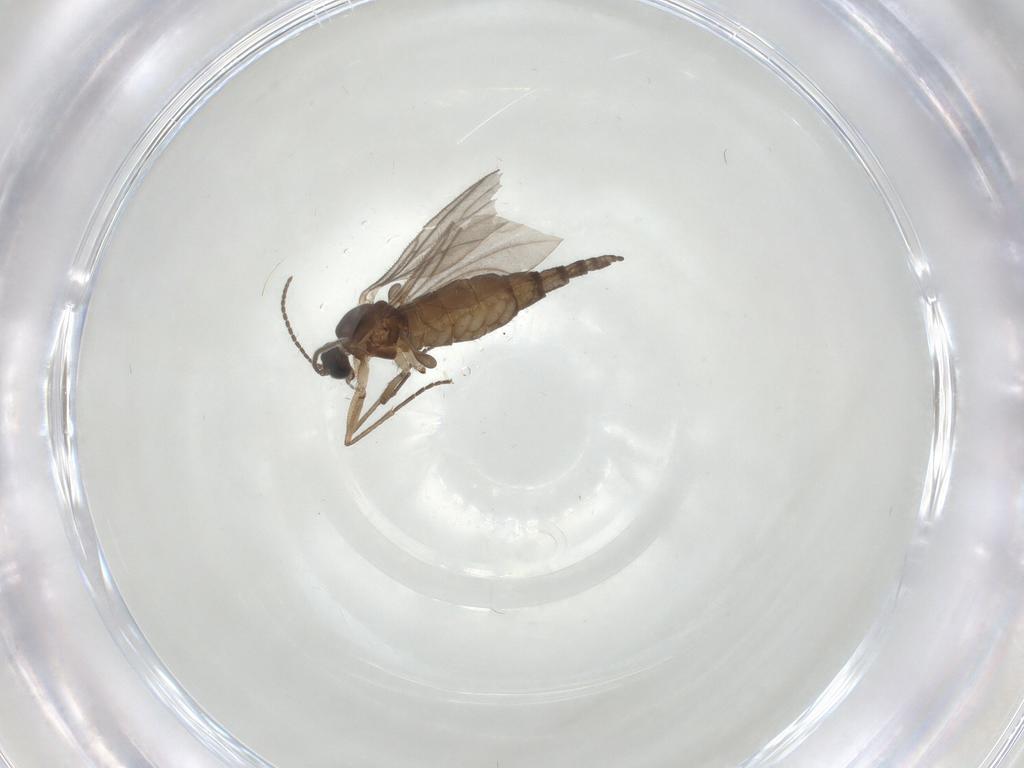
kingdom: Animalia
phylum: Arthropoda
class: Insecta
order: Diptera
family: Sciaridae
